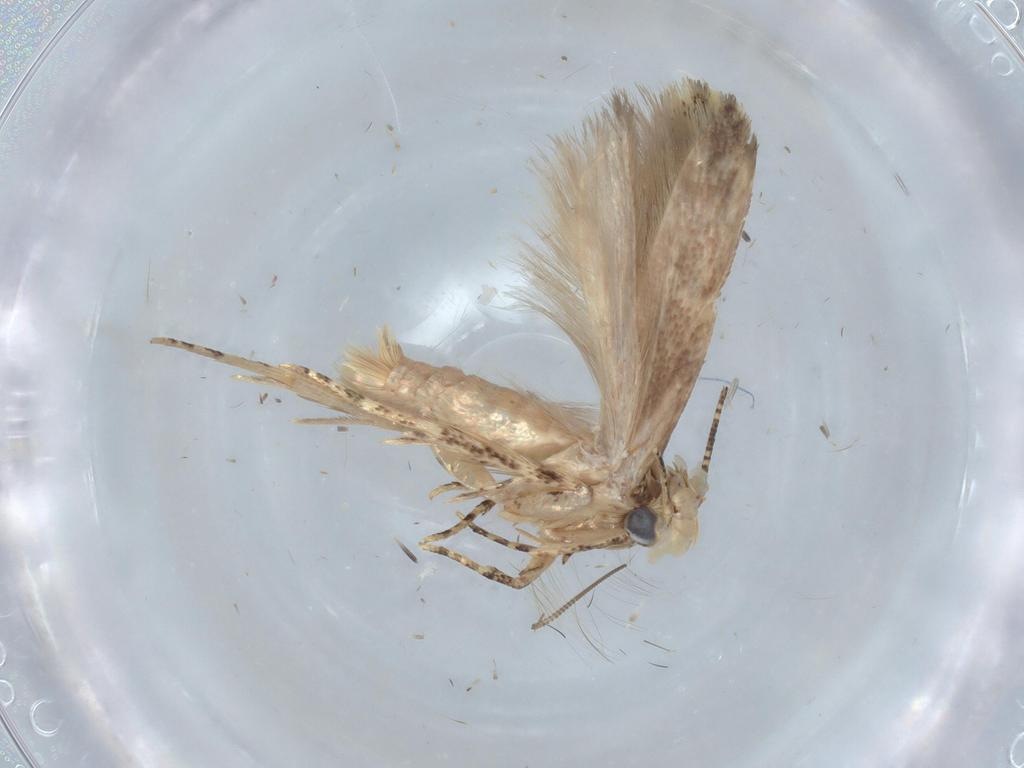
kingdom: Animalia
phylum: Arthropoda
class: Insecta
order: Lepidoptera
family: Gelechiidae
